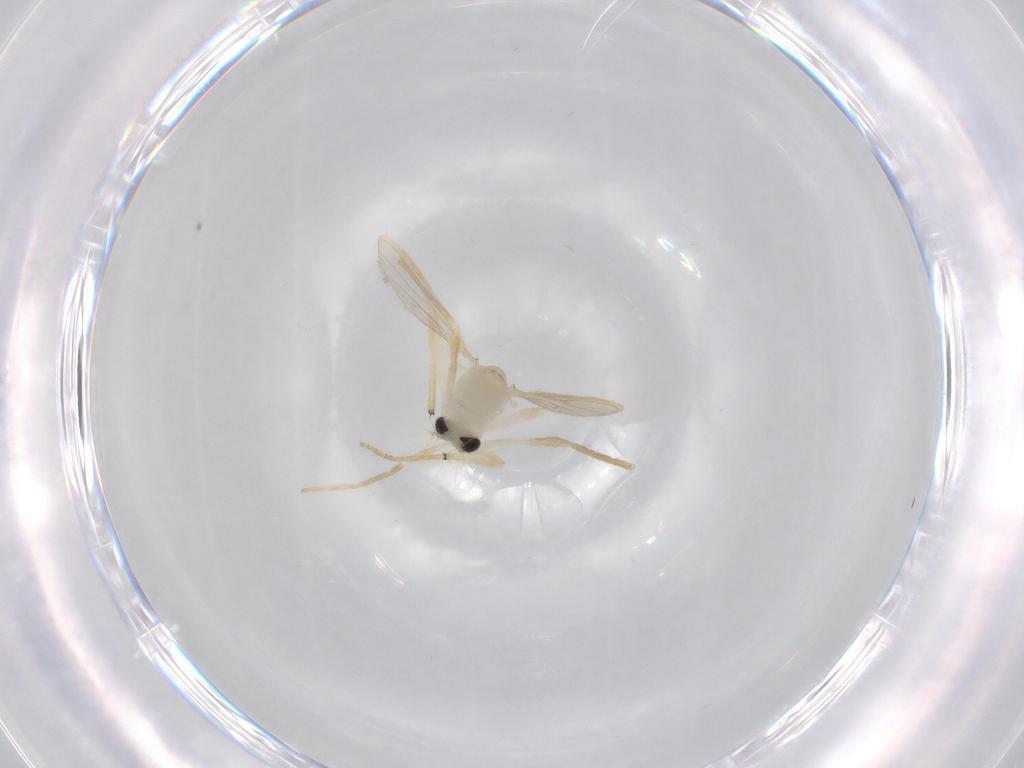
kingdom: Animalia
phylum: Arthropoda
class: Insecta
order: Diptera
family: Chironomidae
